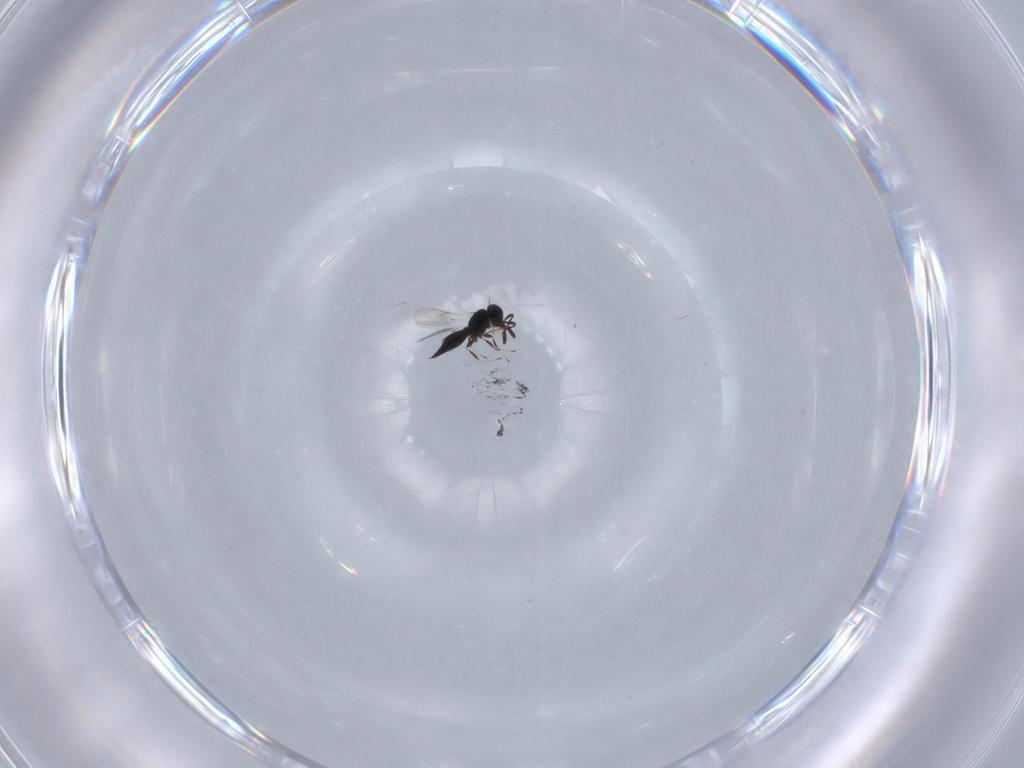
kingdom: Animalia
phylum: Arthropoda
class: Insecta
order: Hymenoptera
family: Scelionidae
